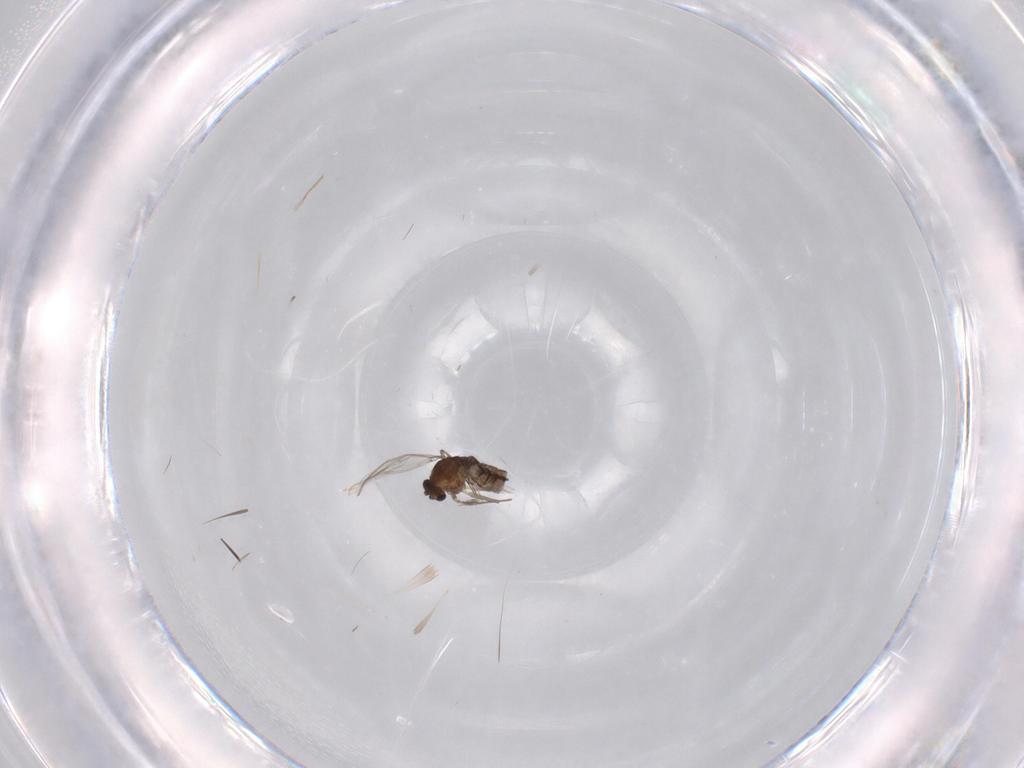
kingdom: Animalia
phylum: Arthropoda
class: Insecta
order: Diptera
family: Chironomidae
